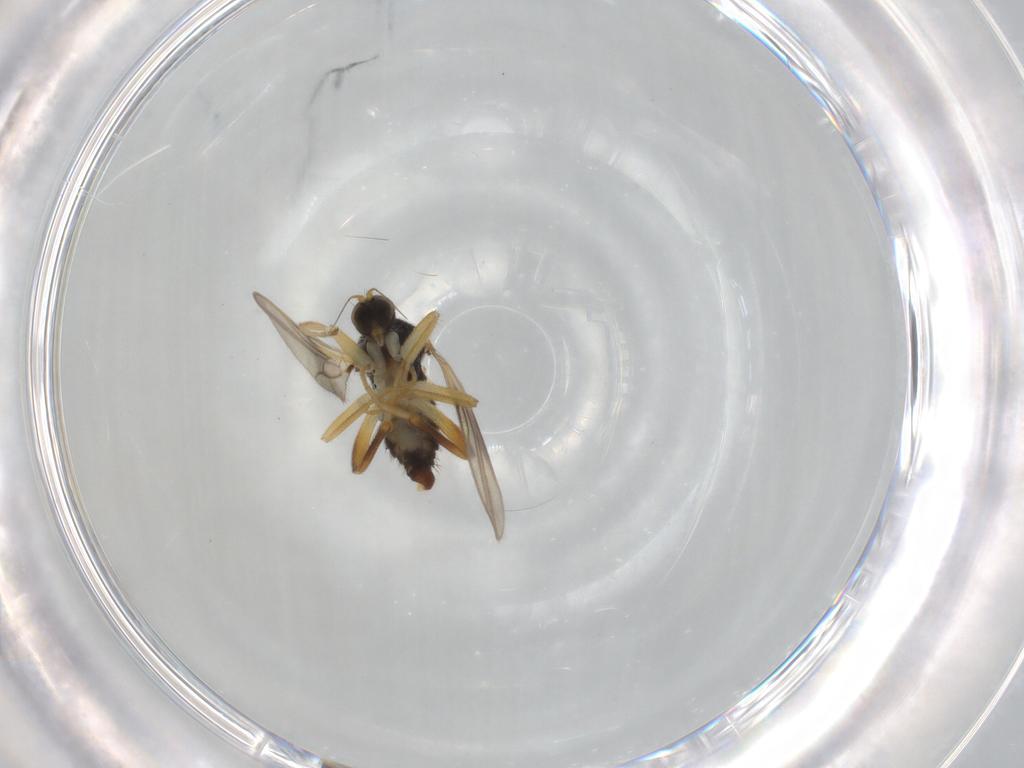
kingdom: Animalia
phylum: Arthropoda
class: Insecta
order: Diptera
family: Hybotidae
